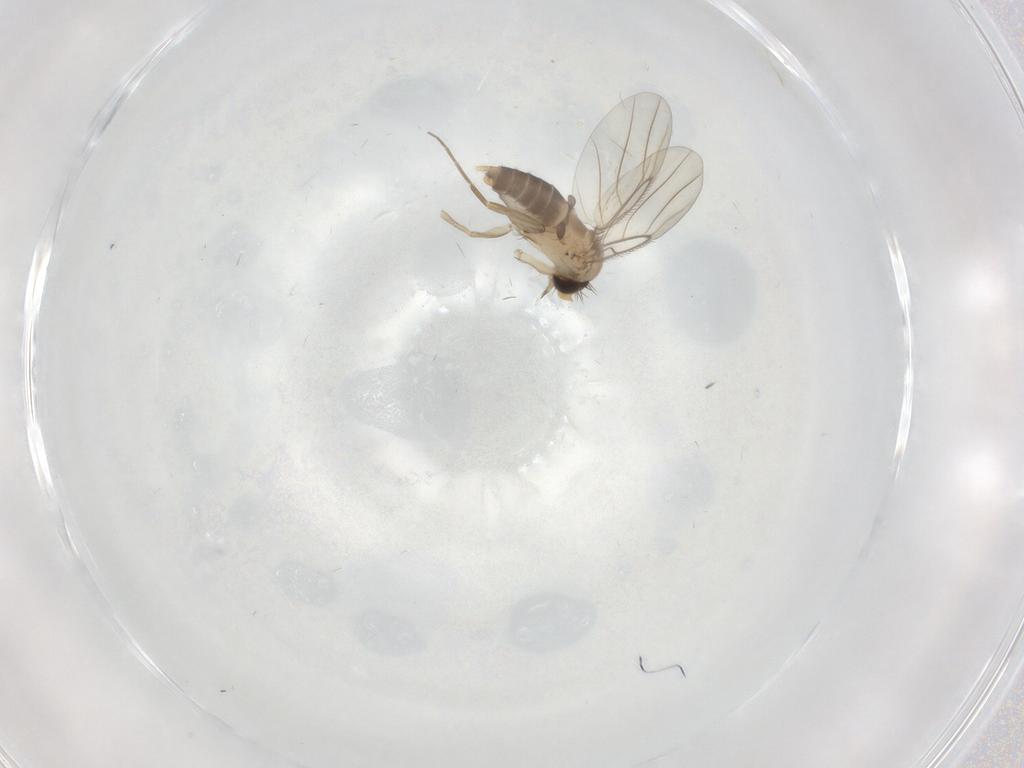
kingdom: Animalia
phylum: Arthropoda
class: Insecta
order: Diptera
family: Phoridae
